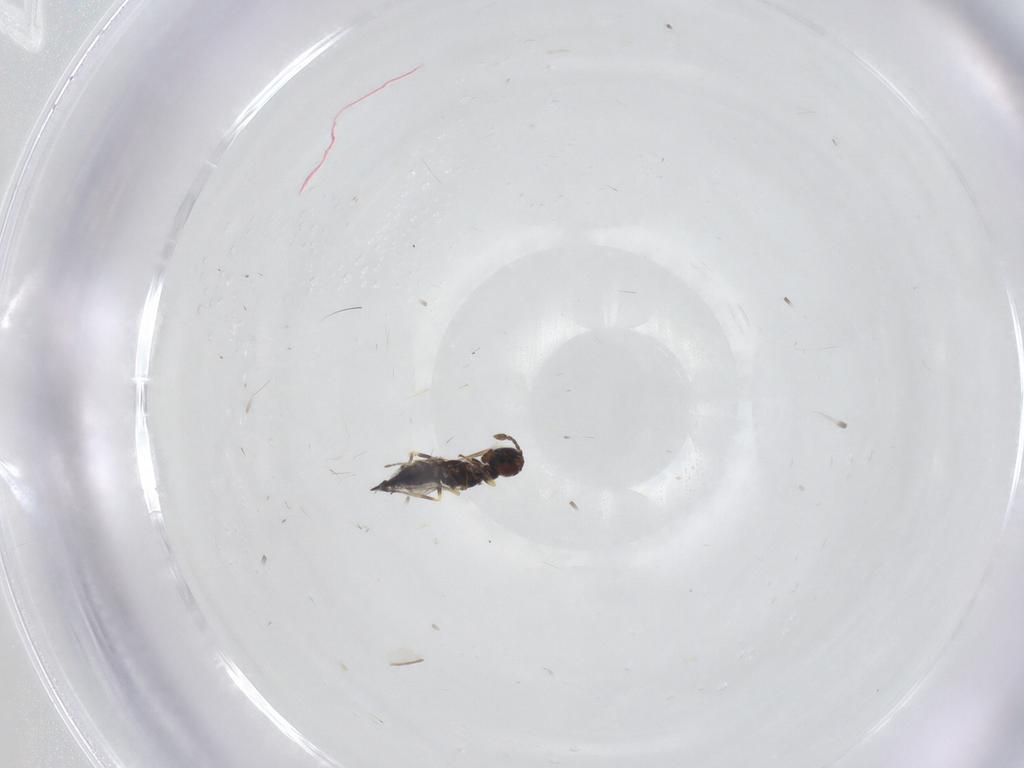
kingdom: Animalia
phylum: Arthropoda
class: Insecta
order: Hymenoptera
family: Eulophidae
